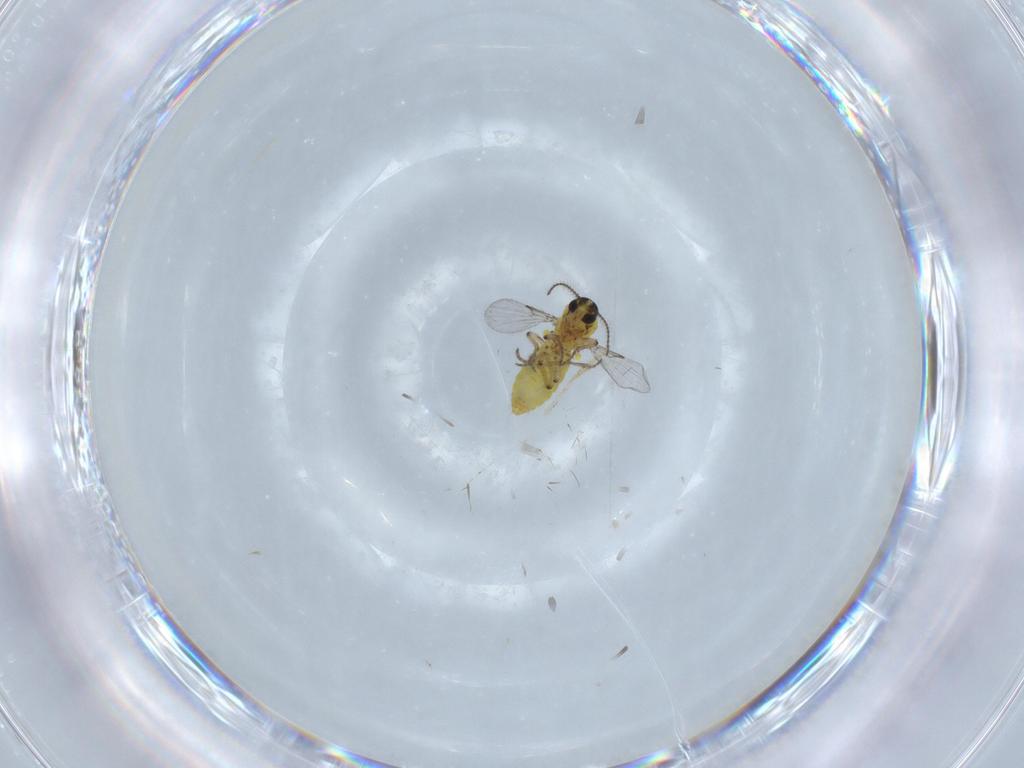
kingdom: Animalia
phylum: Arthropoda
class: Insecta
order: Diptera
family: Ceratopogonidae
